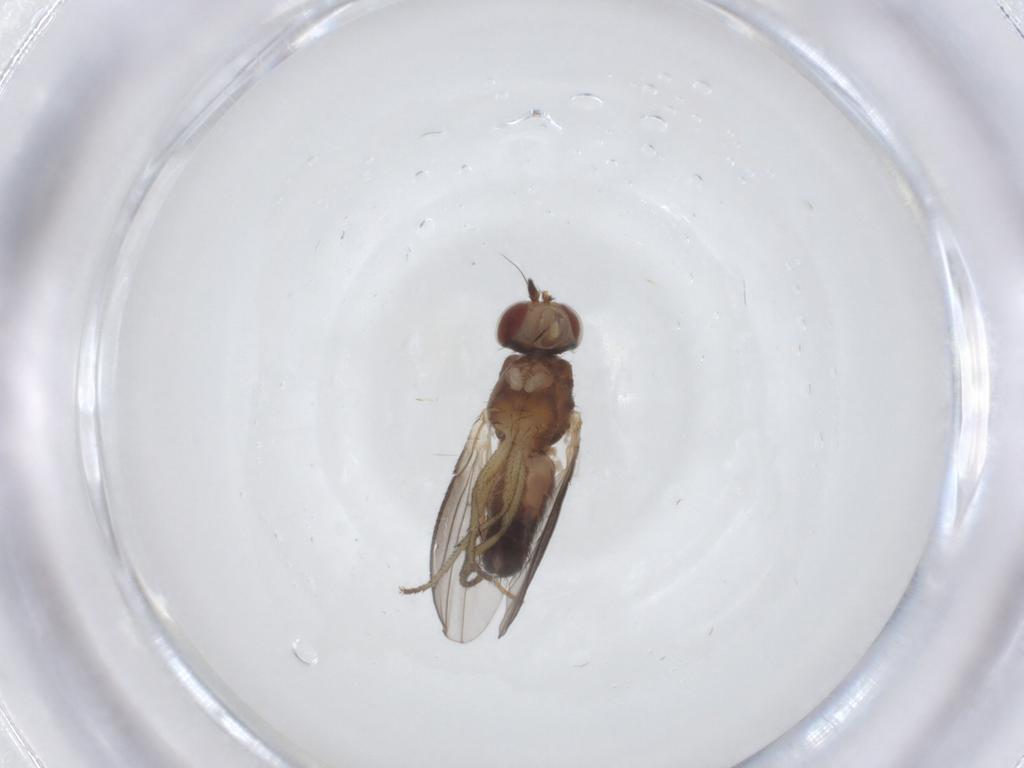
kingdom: Animalia
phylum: Arthropoda
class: Insecta
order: Diptera
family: Heleomyzidae
